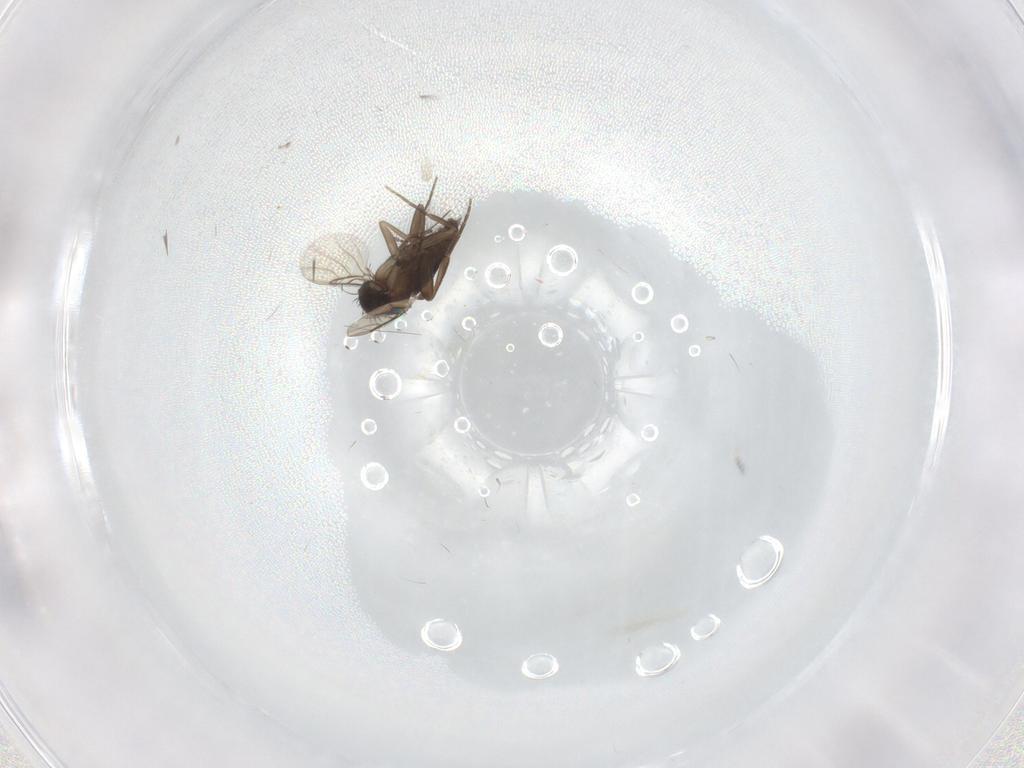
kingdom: Animalia
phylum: Arthropoda
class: Insecta
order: Diptera
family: Phoridae
